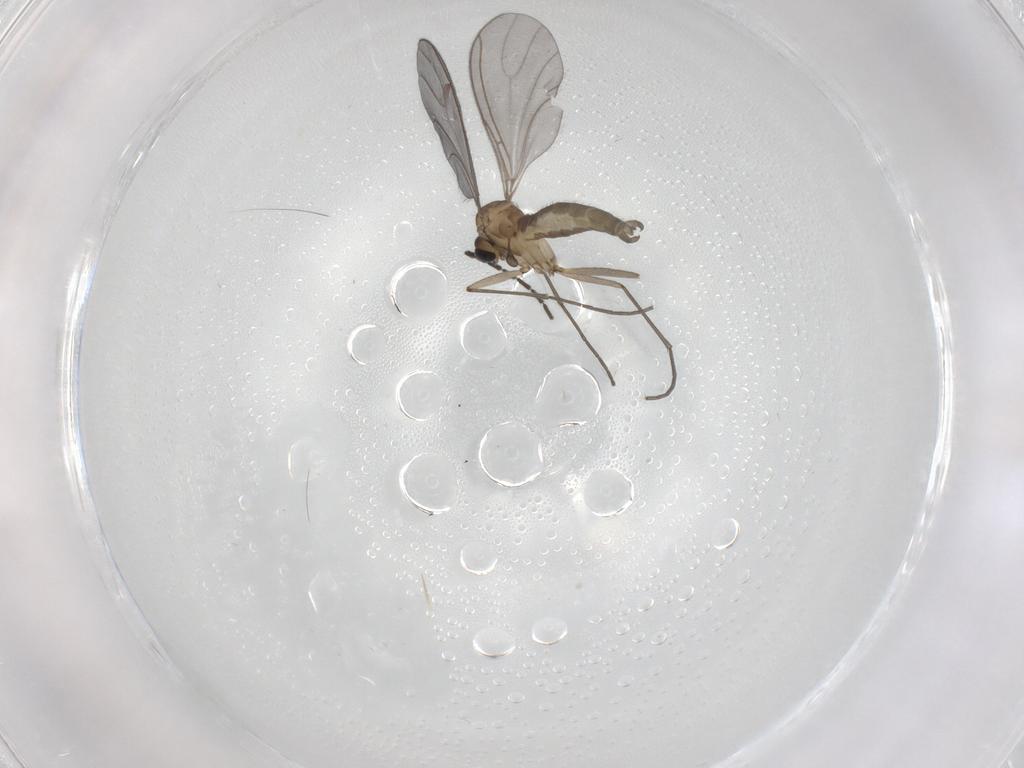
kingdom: Animalia
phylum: Arthropoda
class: Insecta
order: Diptera
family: Sciaridae
